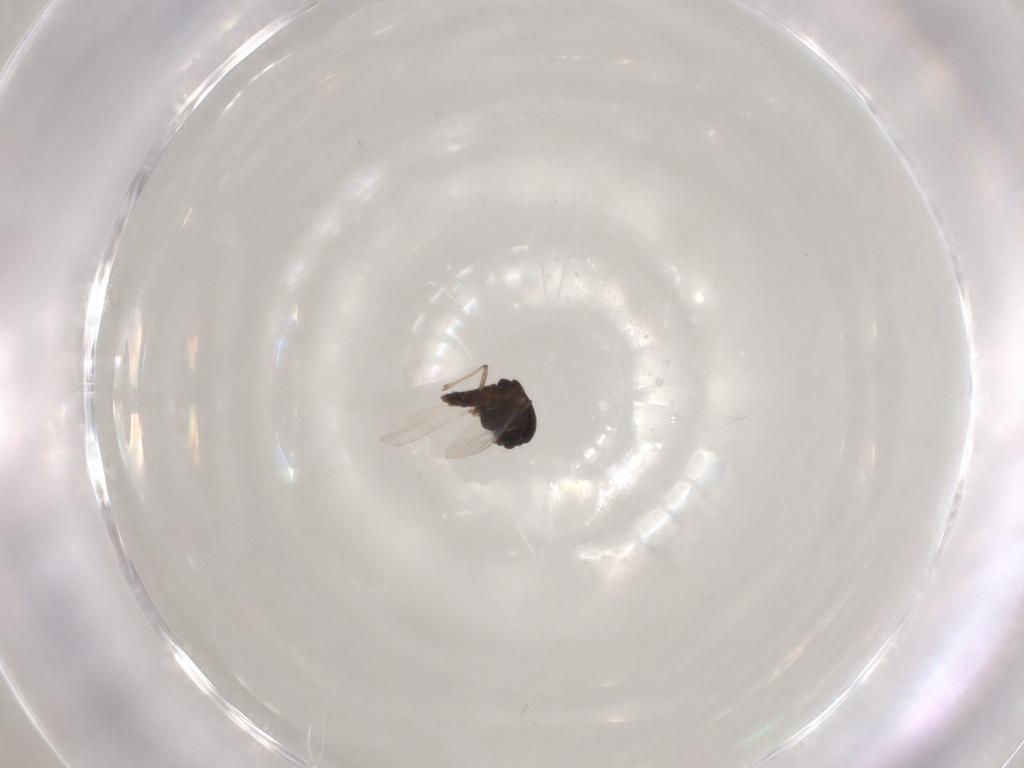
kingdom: Animalia
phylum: Arthropoda
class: Insecta
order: Diptera
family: Chironomidae
